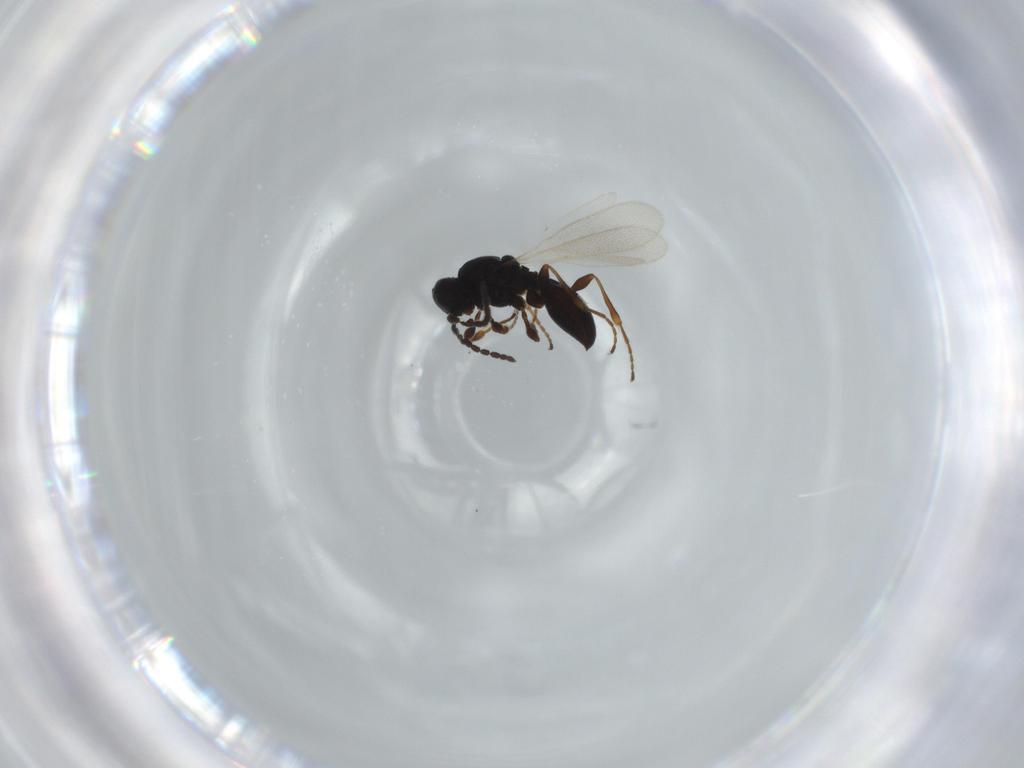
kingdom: Animalia
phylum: Arthropoda
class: Insecta
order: Hymenoptera
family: Platygastridae
